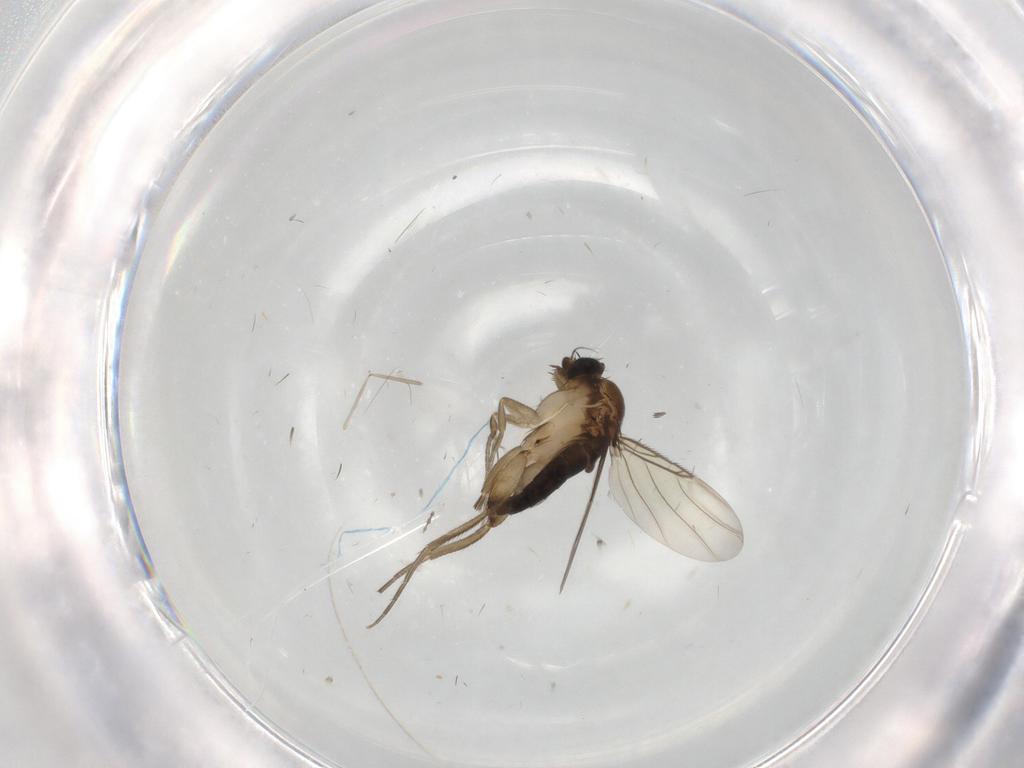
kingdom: Animalia
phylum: Arthropoda
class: Insecta
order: Diptera
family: Phoridae
